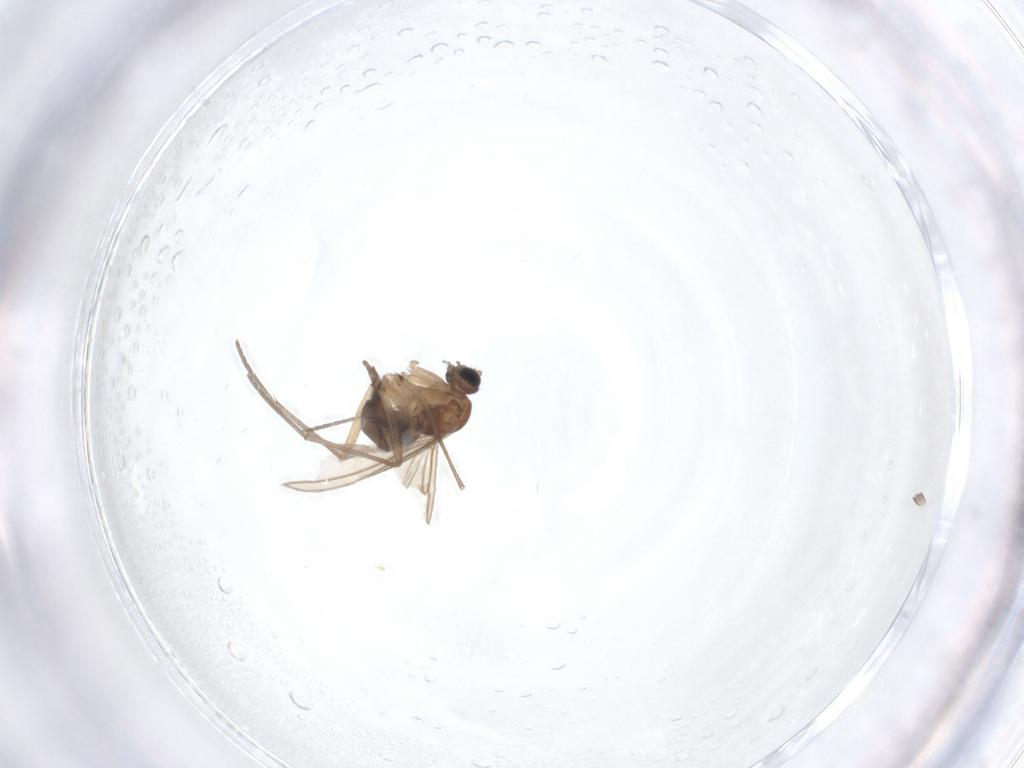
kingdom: Animalia
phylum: Arthropoda
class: Insecta
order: Diptera
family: Sciaridae
